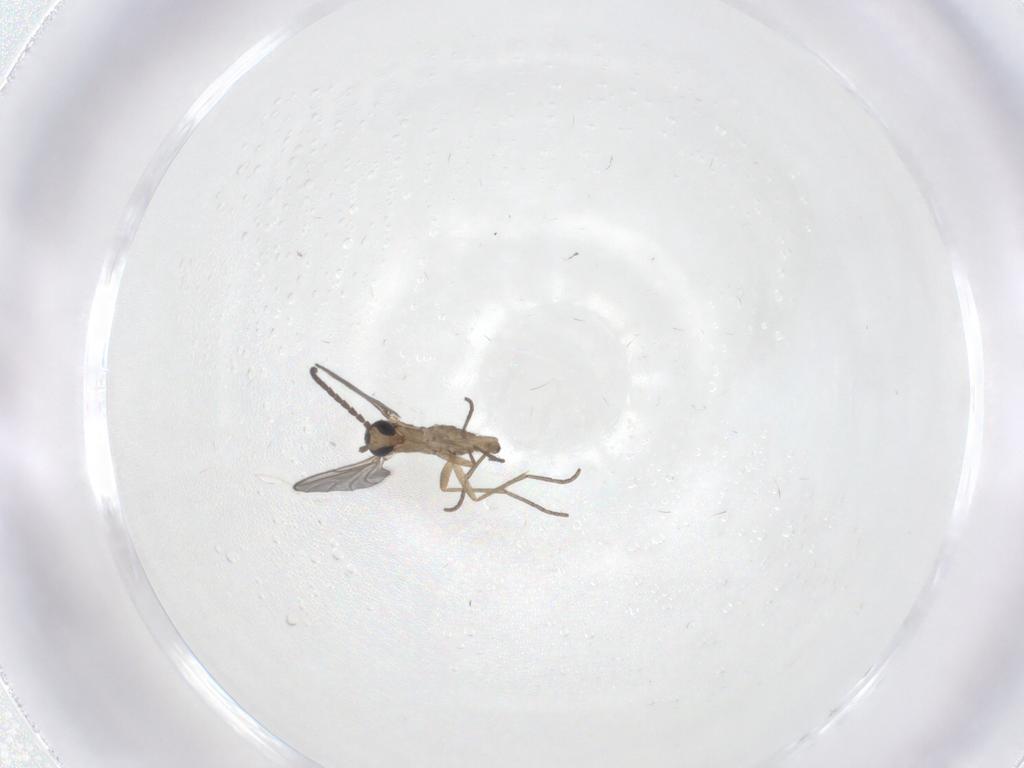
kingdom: Animalia
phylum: Arthropoda
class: Insecta
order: Diptera
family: Sciaridae
